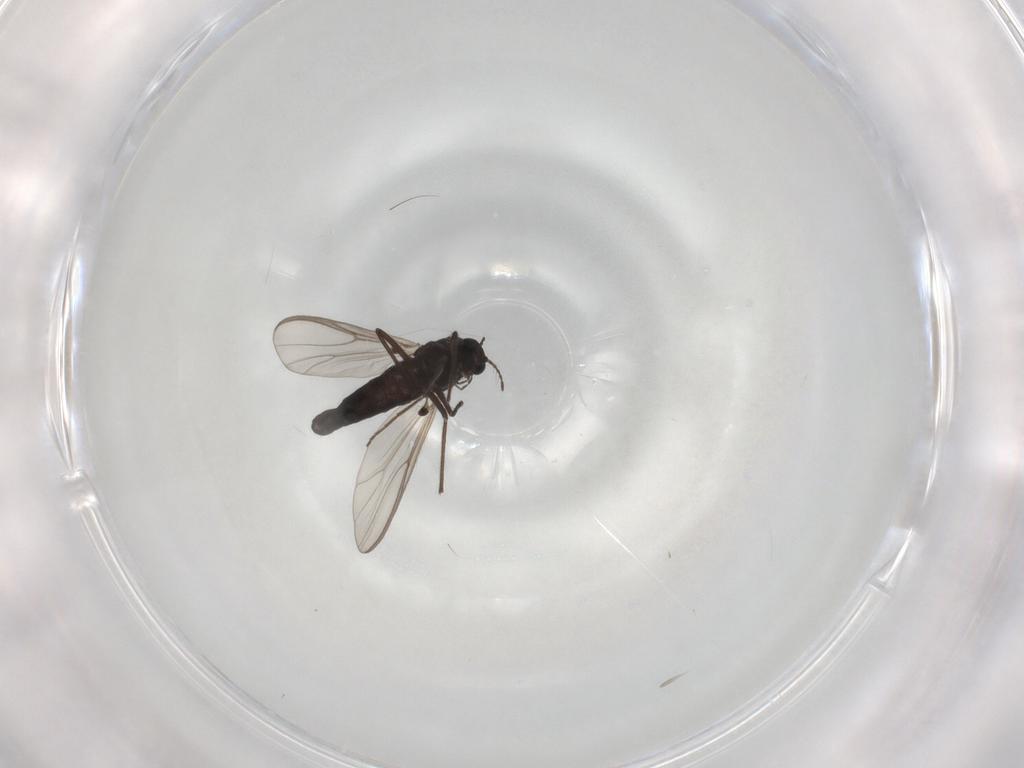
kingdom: Animalia
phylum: Arthropoda
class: Insecta
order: Diptera
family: Chironomidae
